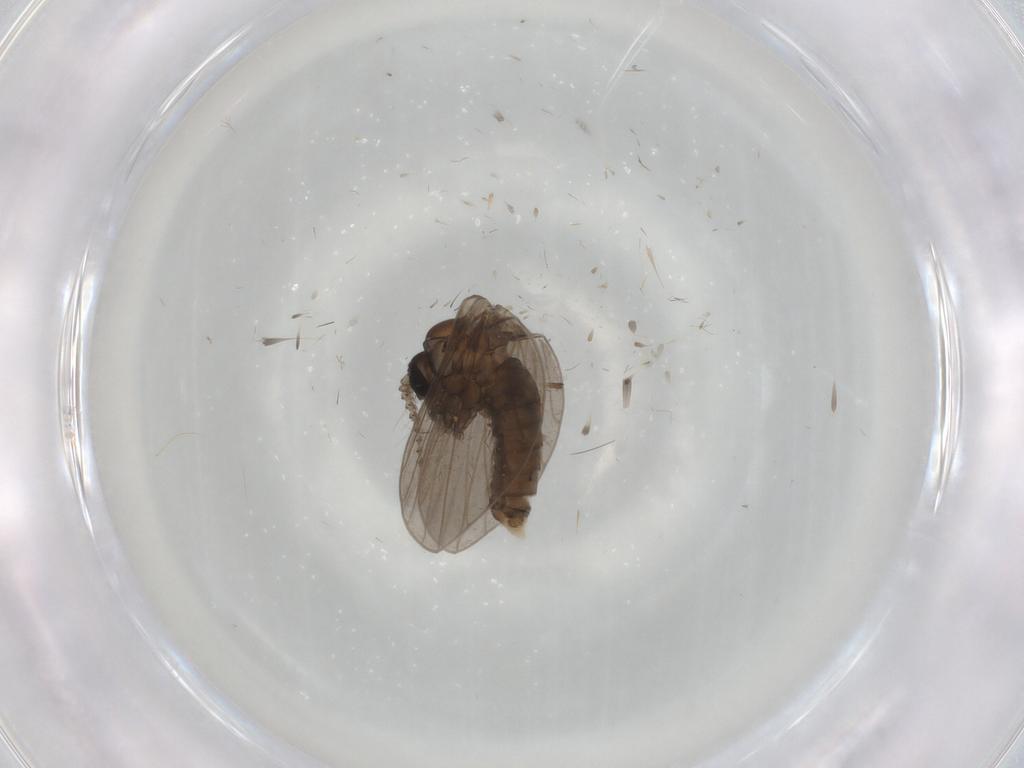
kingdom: Animalia
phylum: Arthropoda
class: Insecta
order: Diptera
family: Psychodidae
